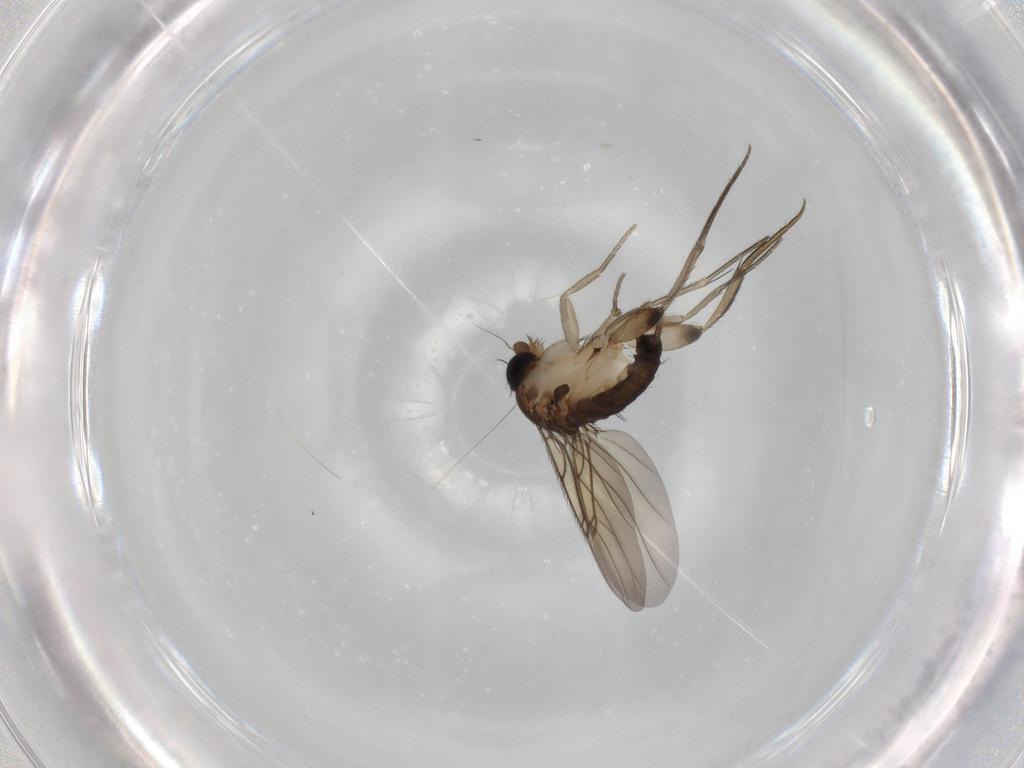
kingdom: Animalia
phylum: Arthropoda
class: Insecta
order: Diptera
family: Phoridae
